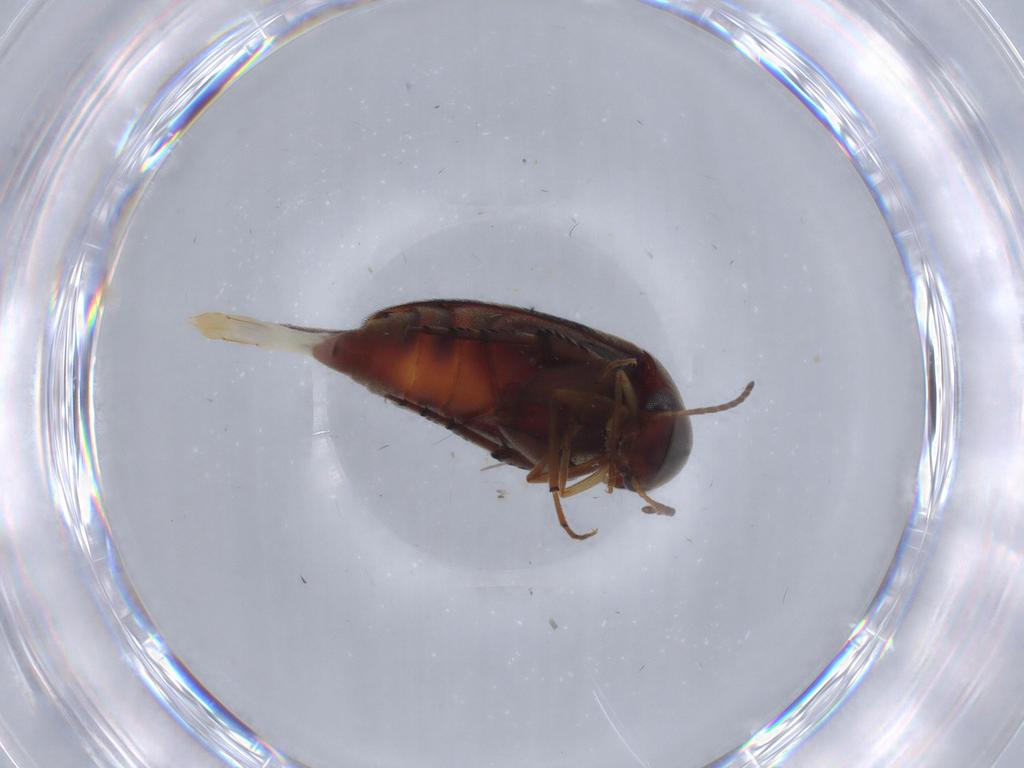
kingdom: Animalia
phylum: Arthropoda
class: Insecta
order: Coleoptera
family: Mordellidae
